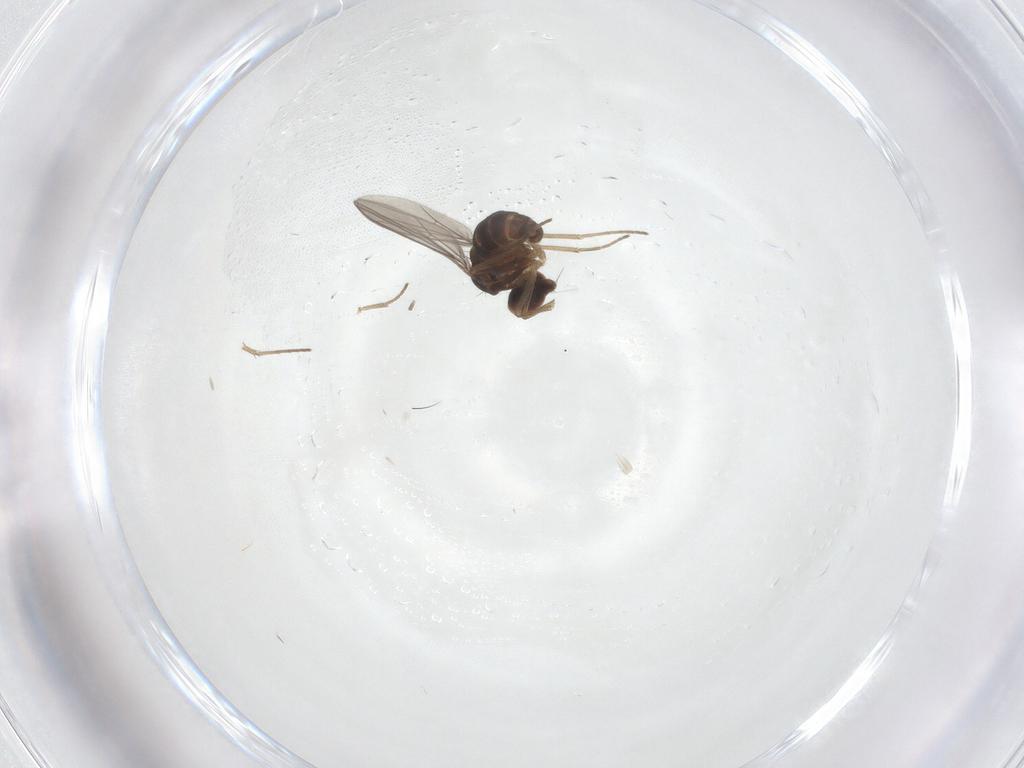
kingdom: Animalia
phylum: Arthropoda
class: Insecta
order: Diptera
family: Dolichopodidae
